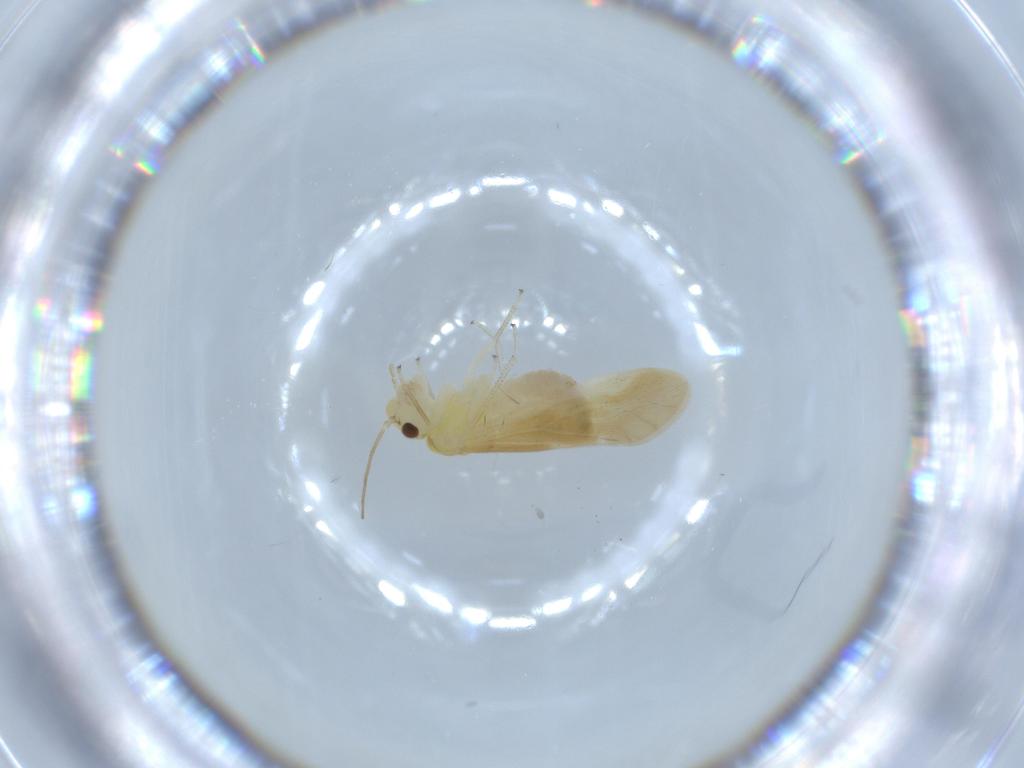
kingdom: Animalia
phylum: Arthropoda
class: Insecta
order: Psocodea
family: Caeciliusidae
